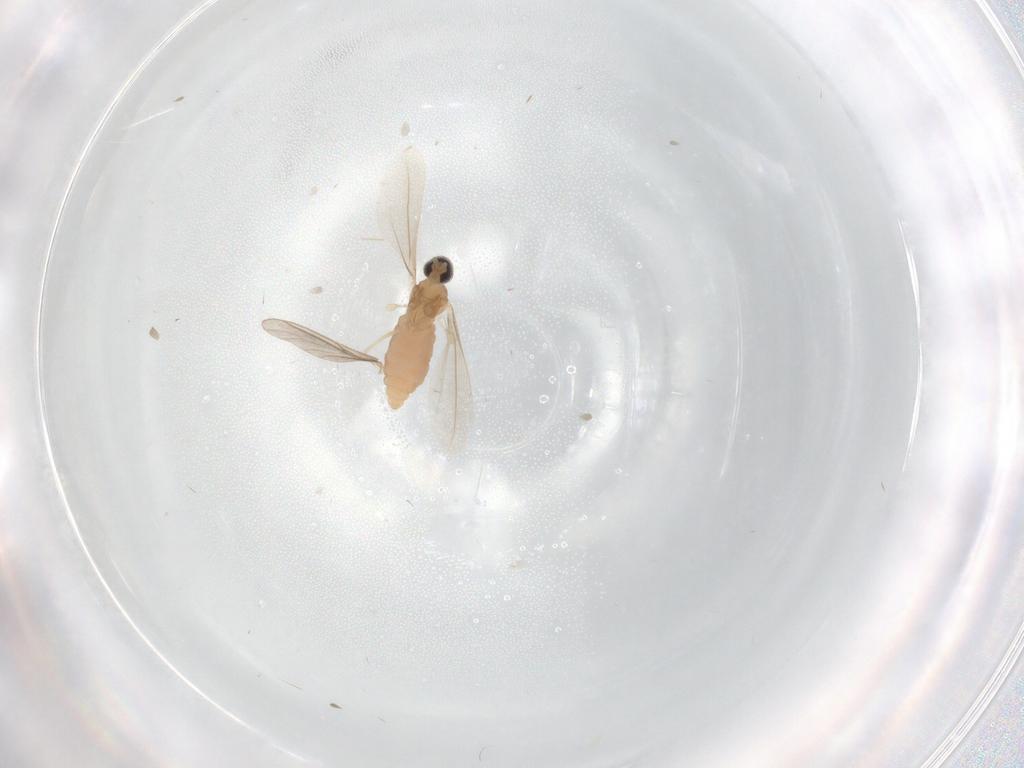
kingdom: Animalia
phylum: Arthropoda
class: Insecta
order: Diptera
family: Cecidomyiidae
